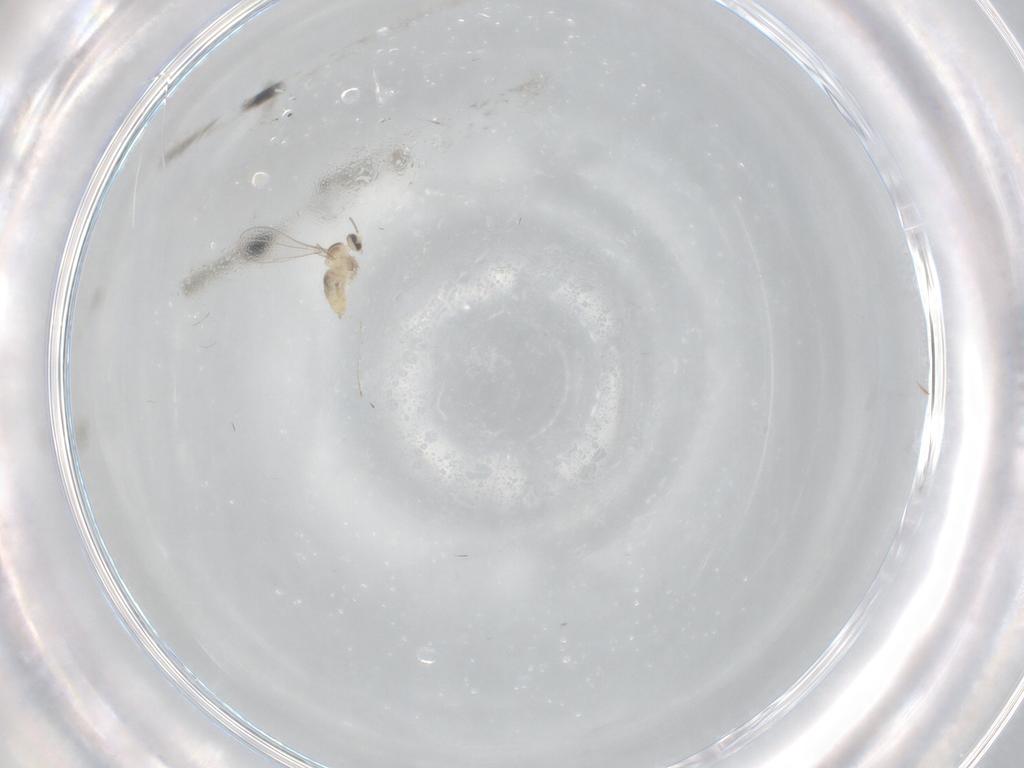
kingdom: Animalia
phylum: Arthropoda
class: Insecta
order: Diptera
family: Cecidomyiidae
